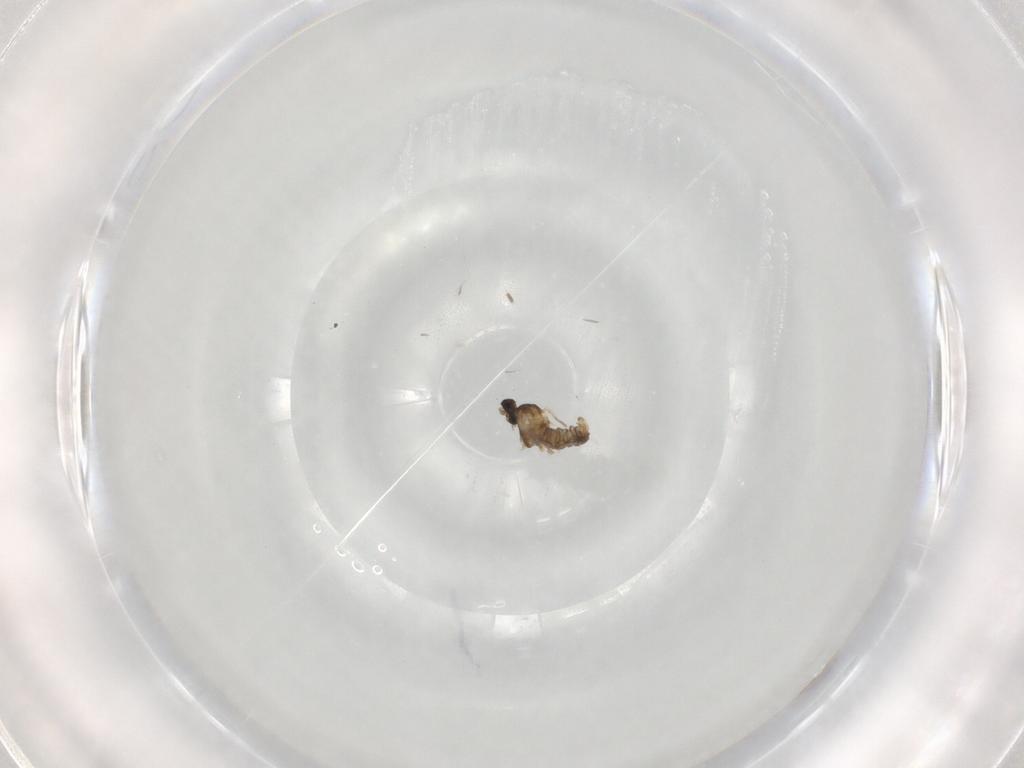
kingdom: Animalia
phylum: Arthropoda
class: Insecta
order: Diptera
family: Cecidomyiidae
